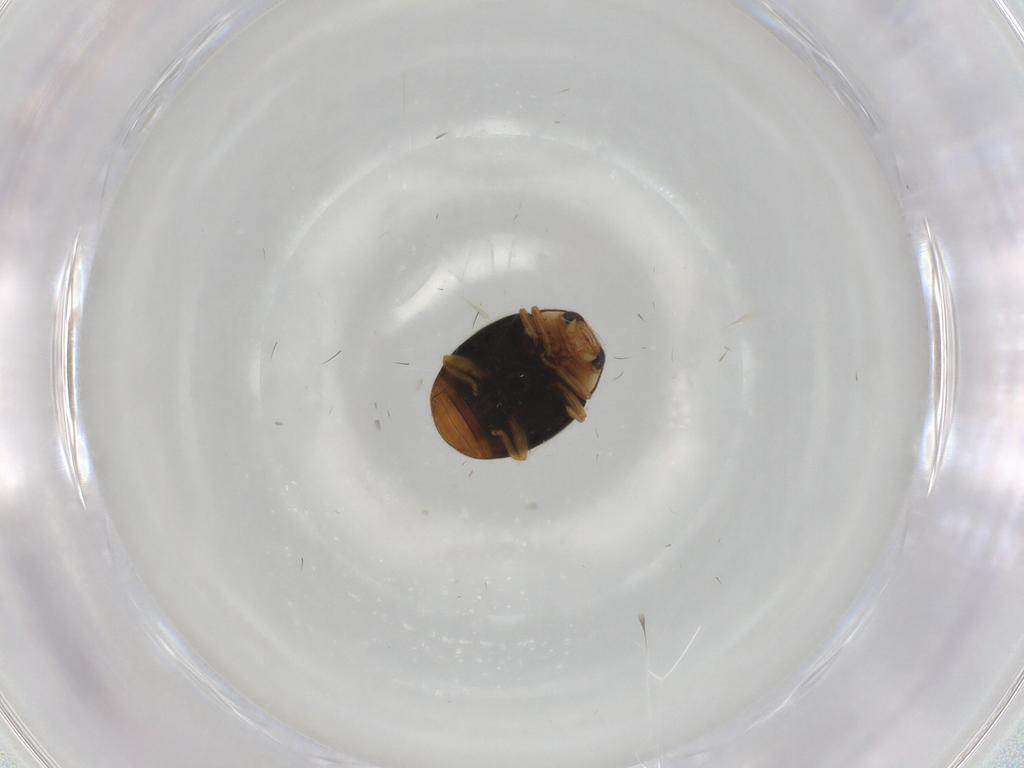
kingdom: Animalia
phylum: Arthropoda
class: Insecta
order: Coleoptera
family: Coccinellidae
